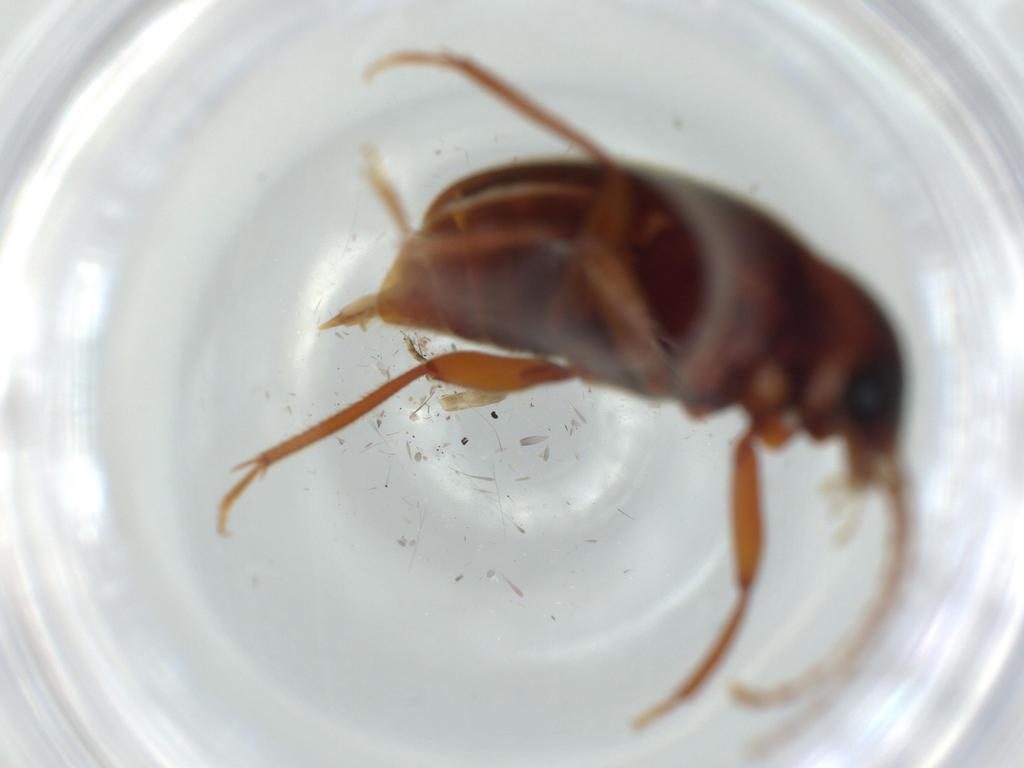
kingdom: Animalia
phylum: Arthropoda
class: Insecta
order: Coleoptera
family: Ptilodactylidae
